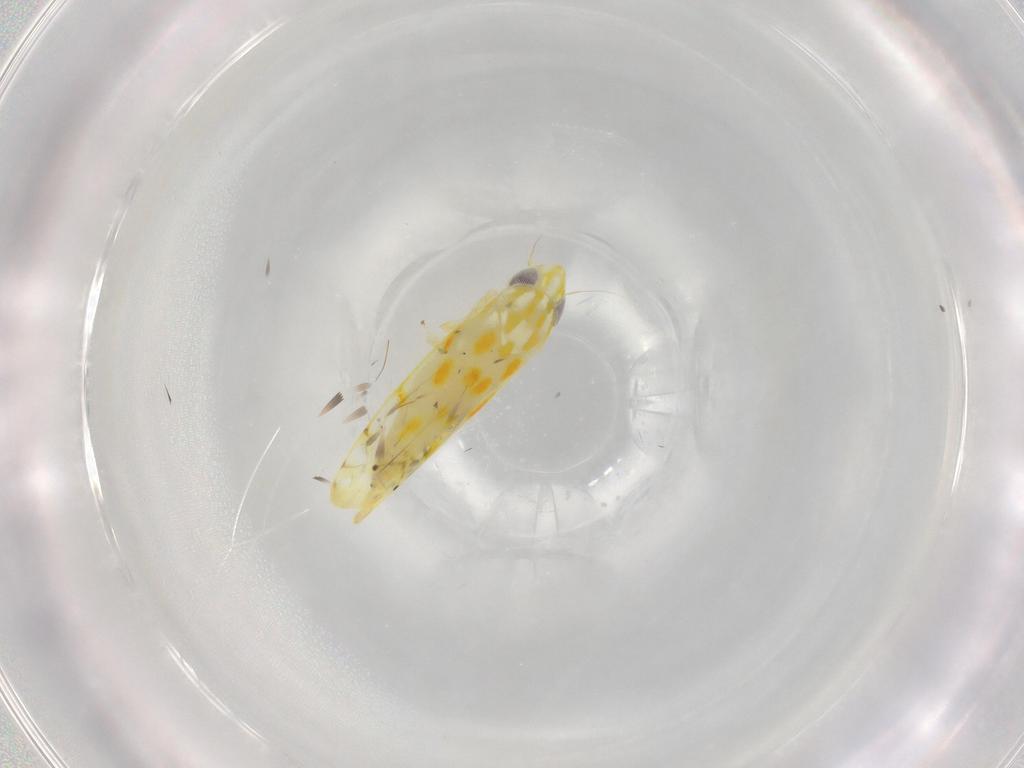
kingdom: Animalia
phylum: Arthropoda
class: Insecta
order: Hemiptera
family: Cicadellidae
